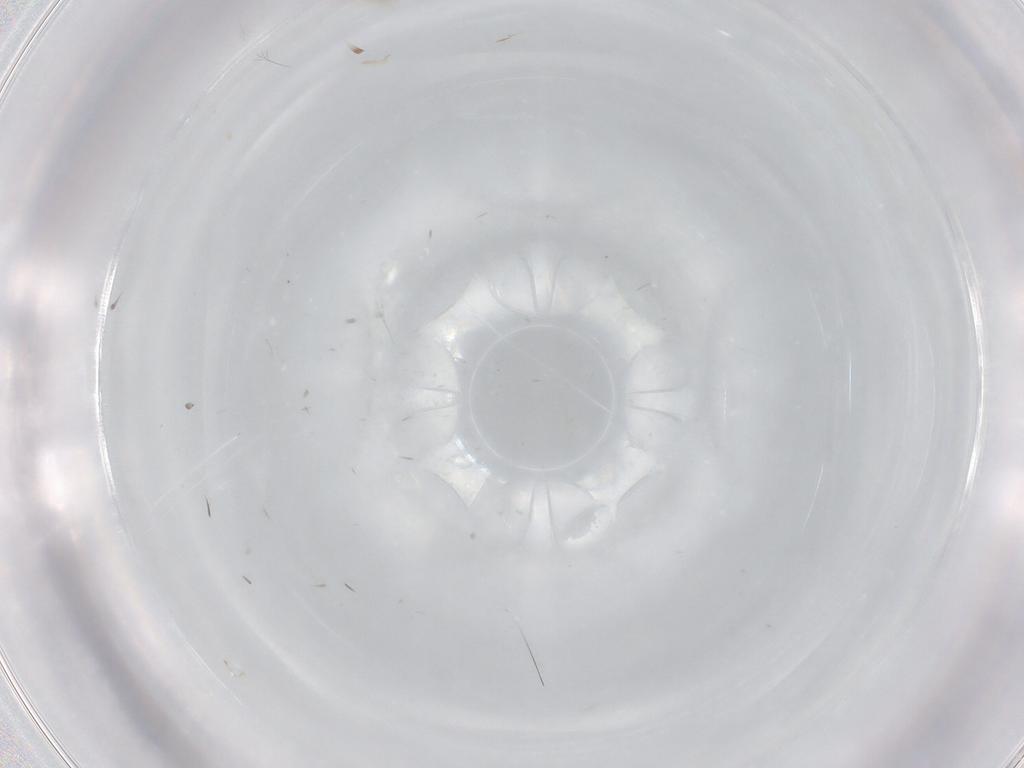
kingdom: Animalia
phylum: Arthropoda
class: Insecta
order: Diptera
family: Cecidomyiidae
